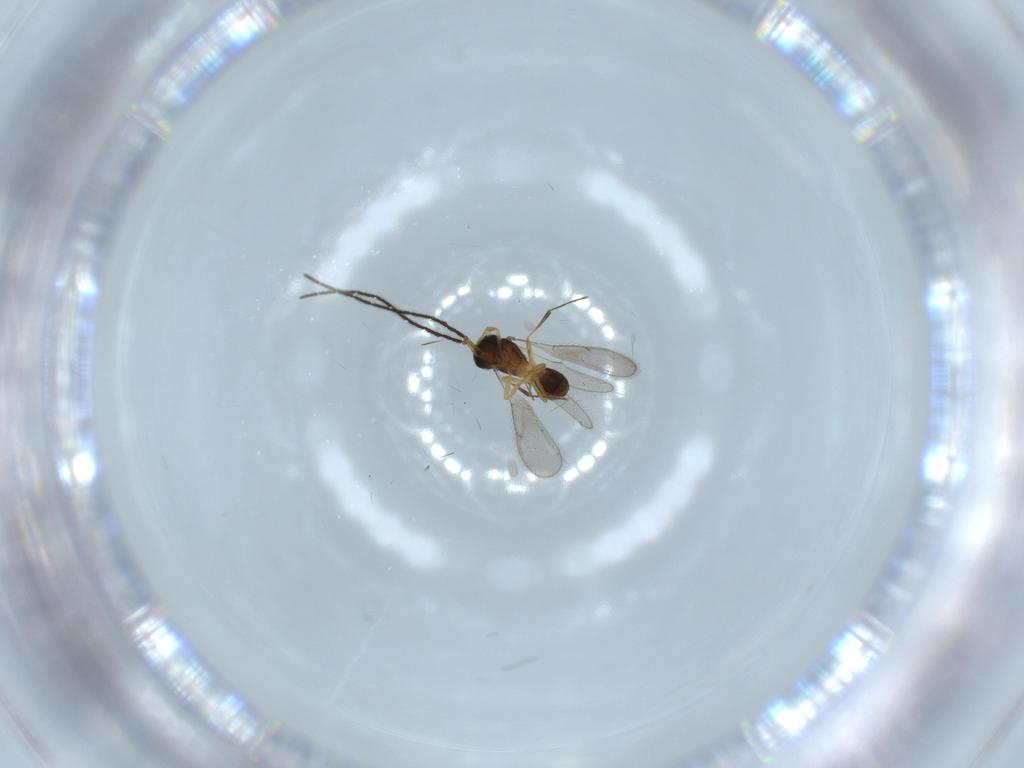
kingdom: Animalia
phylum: Arthropoda
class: Insecta
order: Hymenoptera
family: Scelionidae
